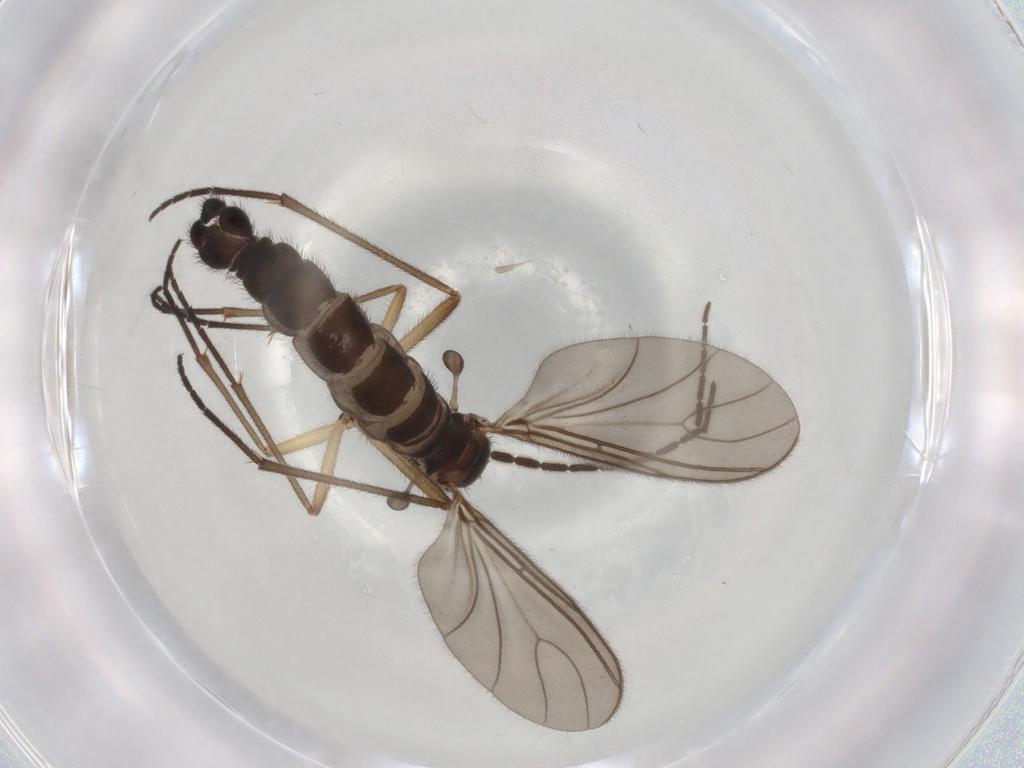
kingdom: Animalia
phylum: Arthropoda
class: Insecta
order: Diptera
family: Sciaridae
